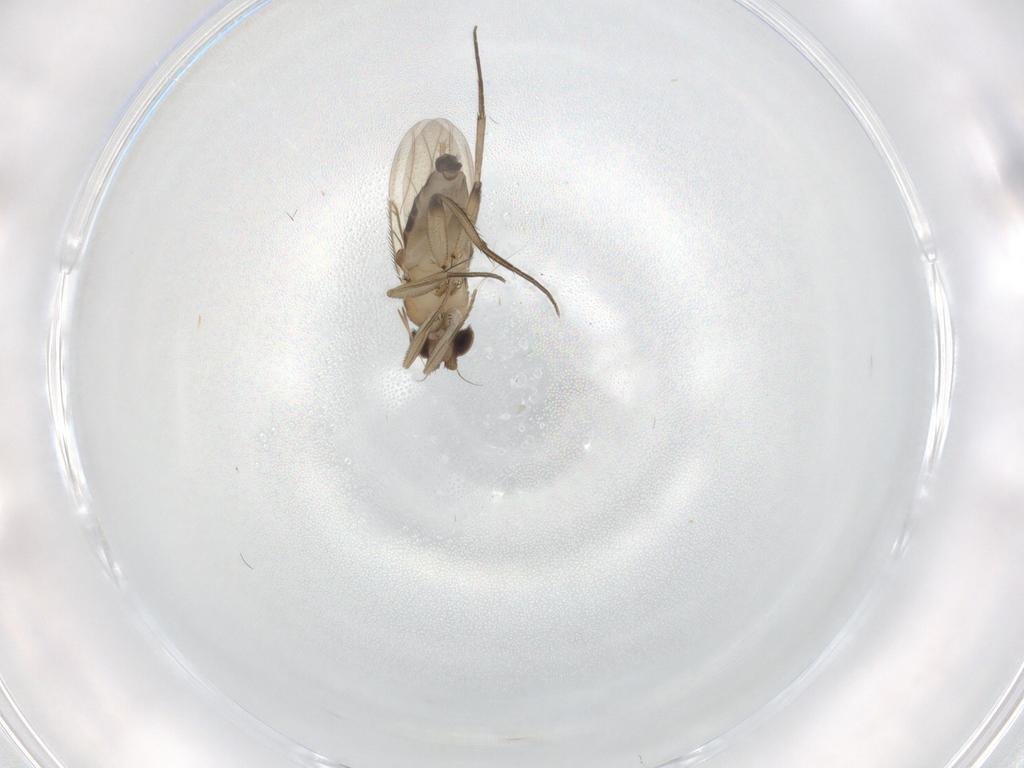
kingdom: Animalia
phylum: Arthropoda
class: Insecta
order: Diptera
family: Phoridae
